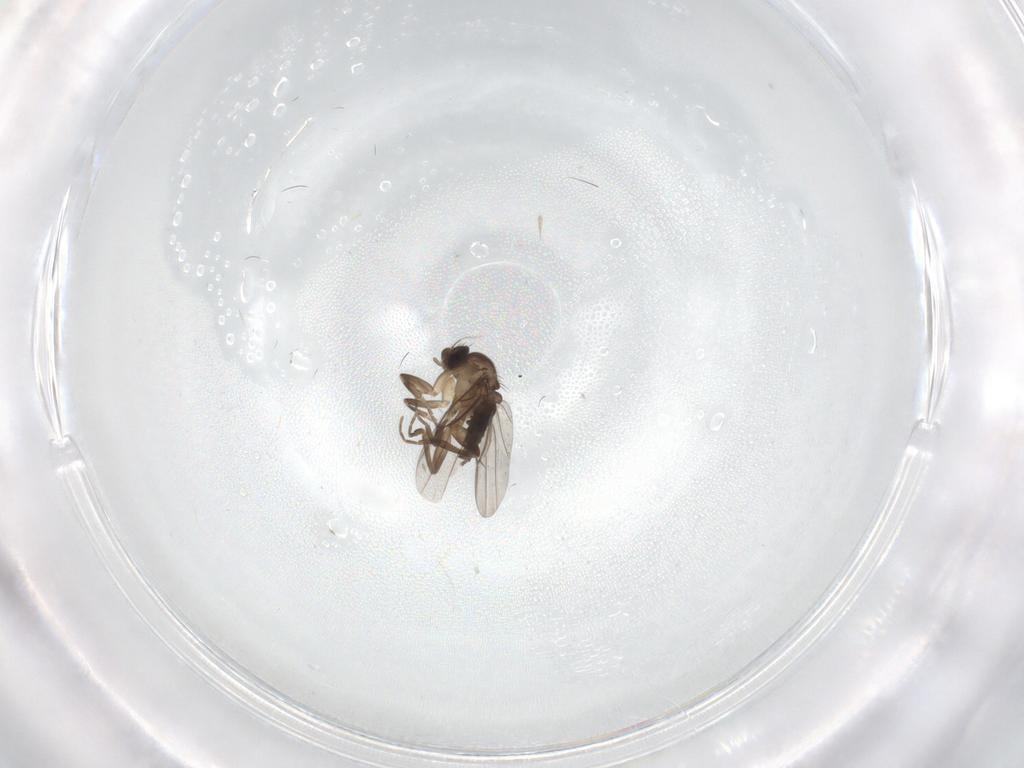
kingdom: Animalia
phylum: Arthropoda
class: Insecta
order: Diptera
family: Phoridae
